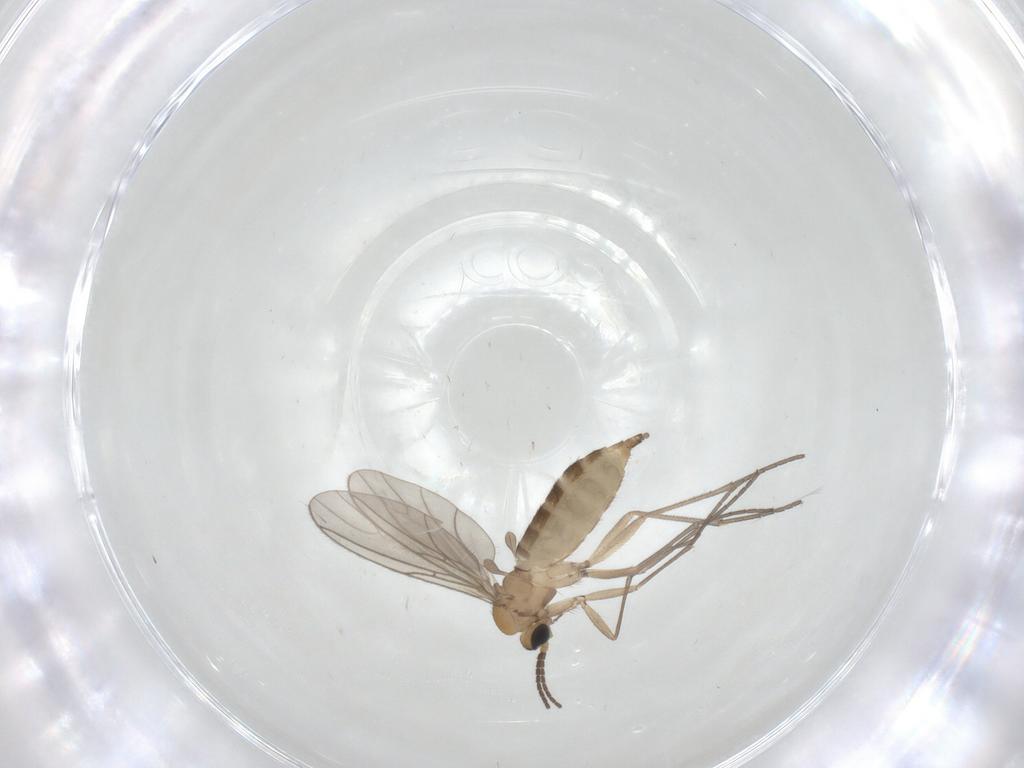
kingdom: Animalia
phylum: Arthropoda
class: Insecta
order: Diptera
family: Sciaridae
